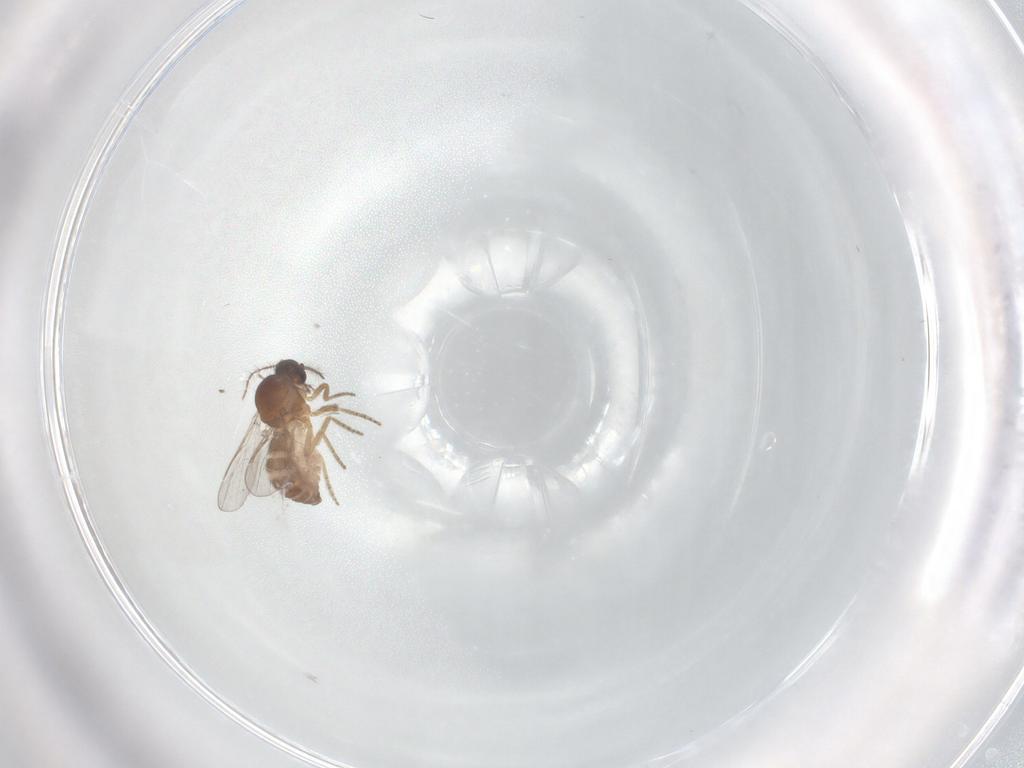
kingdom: Animalia
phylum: Arthropoda
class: Insecta
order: Diptera
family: Ceratopogonidae
